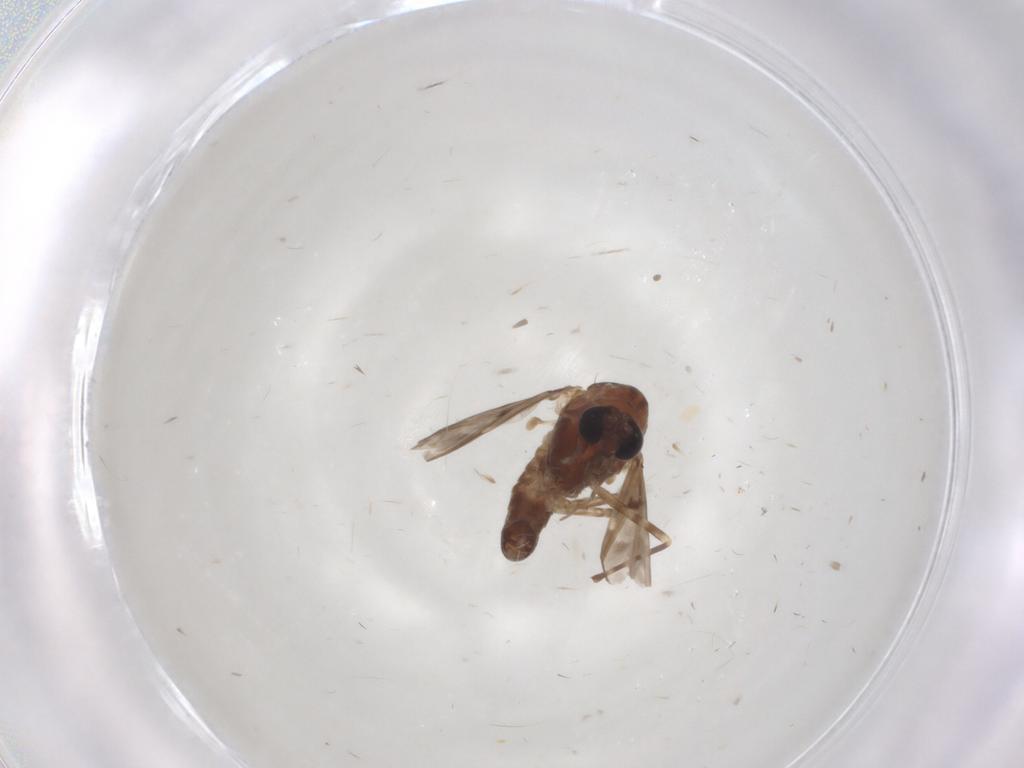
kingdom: Animalia
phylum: Arthropoda
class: Insecta
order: Diptera
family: Chironomidae
